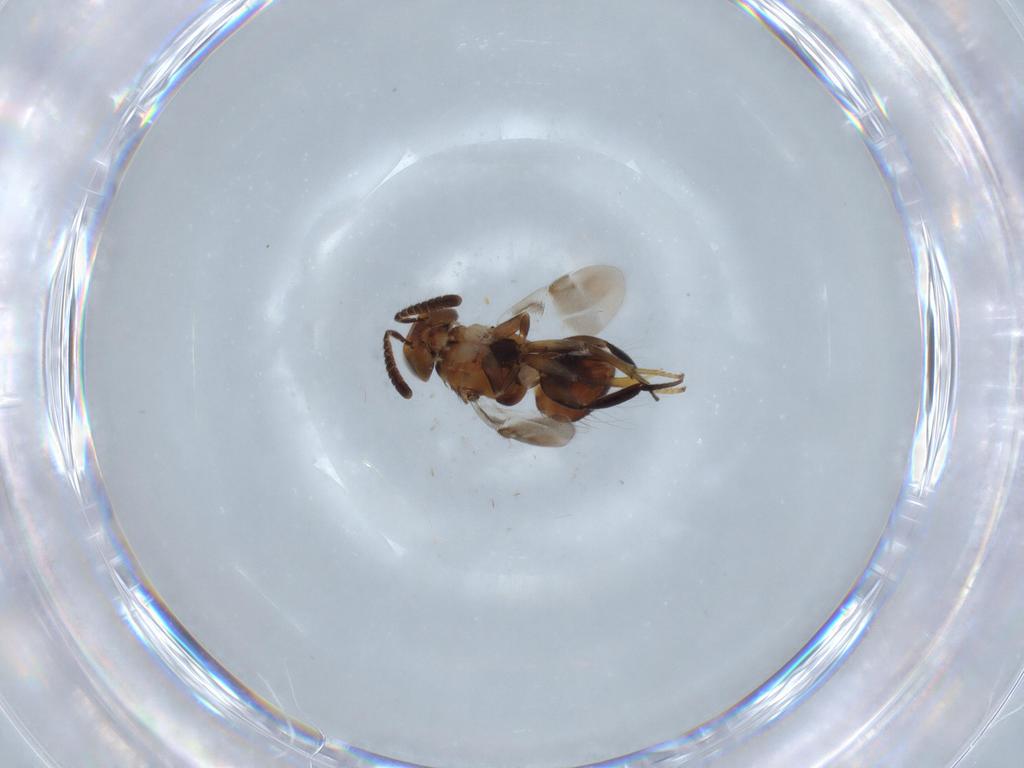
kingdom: Animalia
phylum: Arthropoda
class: Insecta
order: Hymenoptera
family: Encyrtidae
